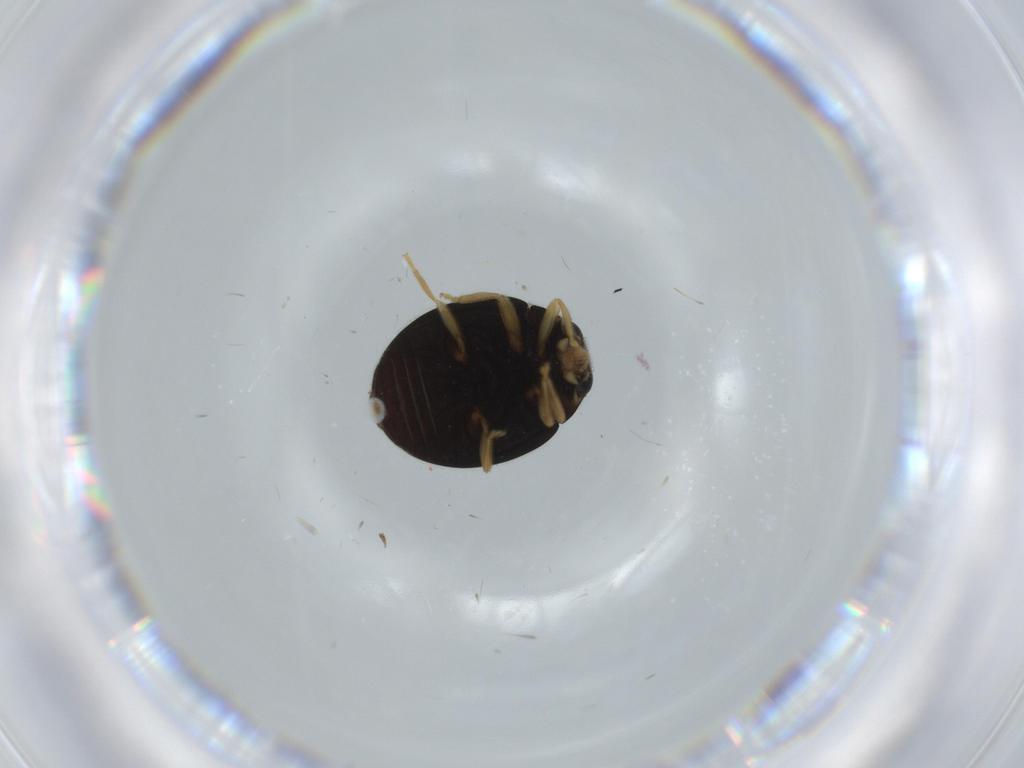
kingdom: Animalia
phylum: Arthropoda
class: Insecta
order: Coleoptera
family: Coccinellidae
